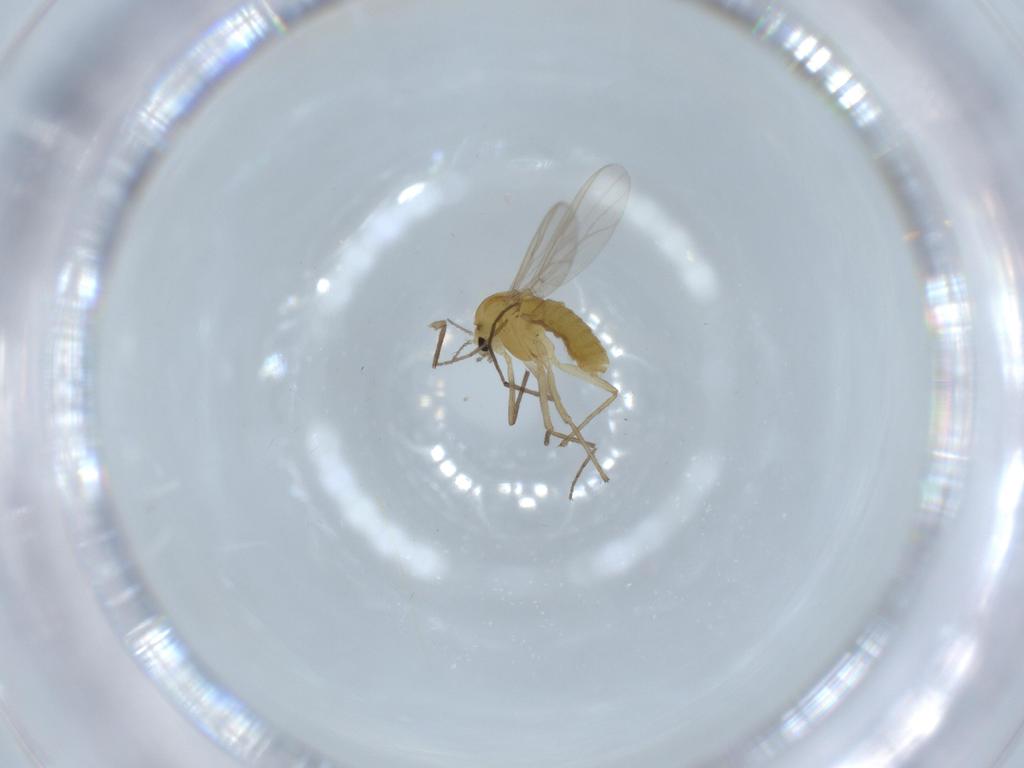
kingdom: Animalia
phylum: Arthropoda
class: Insecta
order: Diptera
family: Chironomidae
